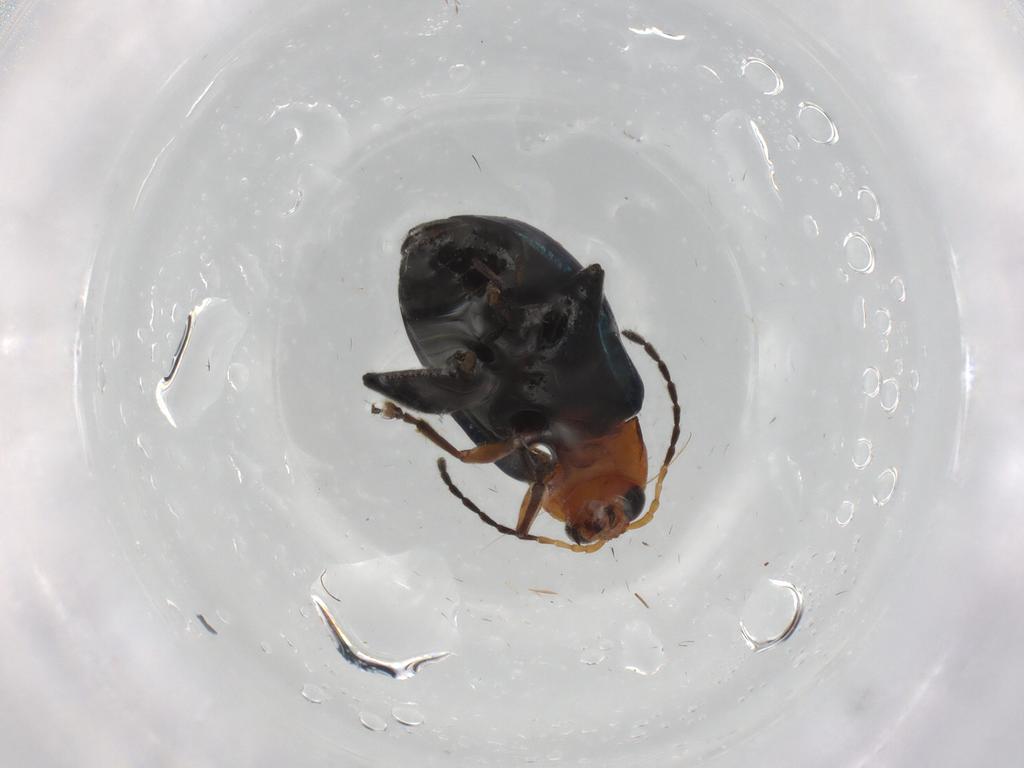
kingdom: Animalia
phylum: Arthropoda
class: Insecta
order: Coleoptera
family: Chrysomelidae
